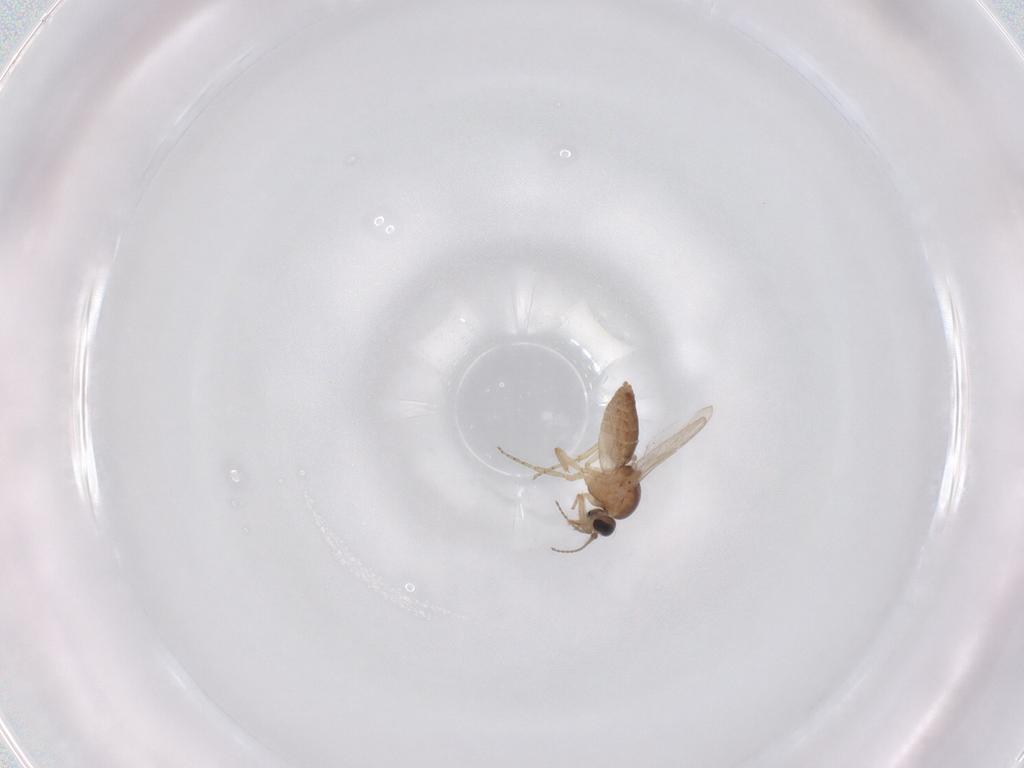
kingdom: Animalia
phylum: Arthropoda
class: Insecta
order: Diptera
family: Ceratopogonidae
